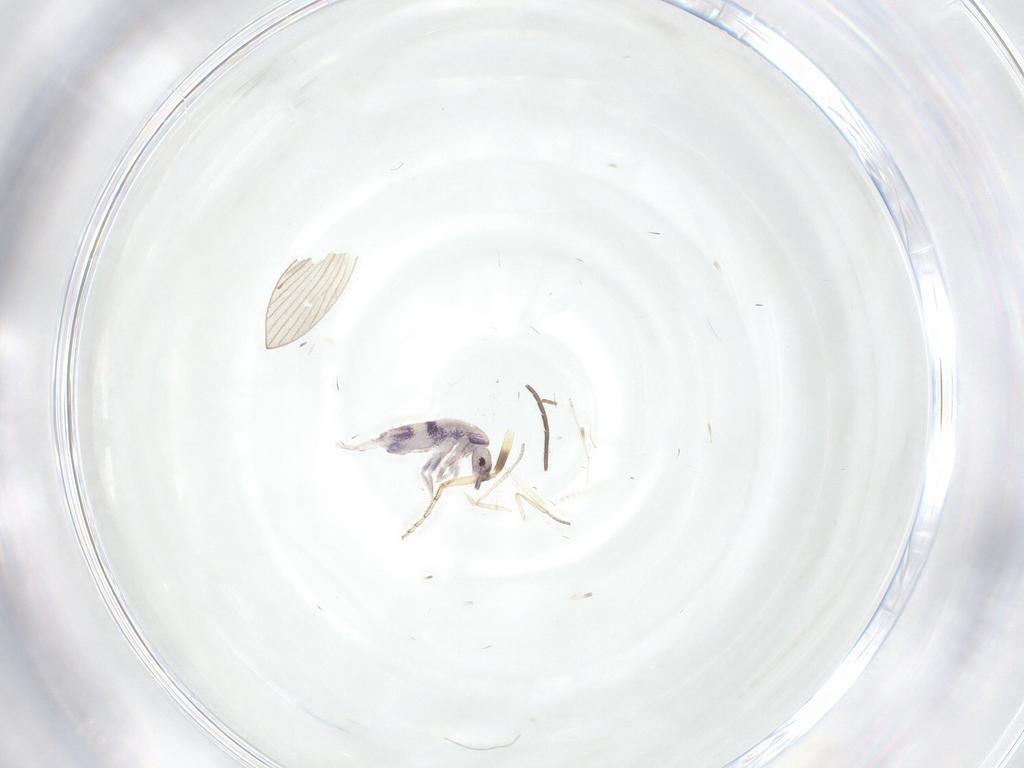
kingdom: Animalia
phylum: Arthropoda
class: Collembola
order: Entomobryomorpha
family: Entomobryidae
